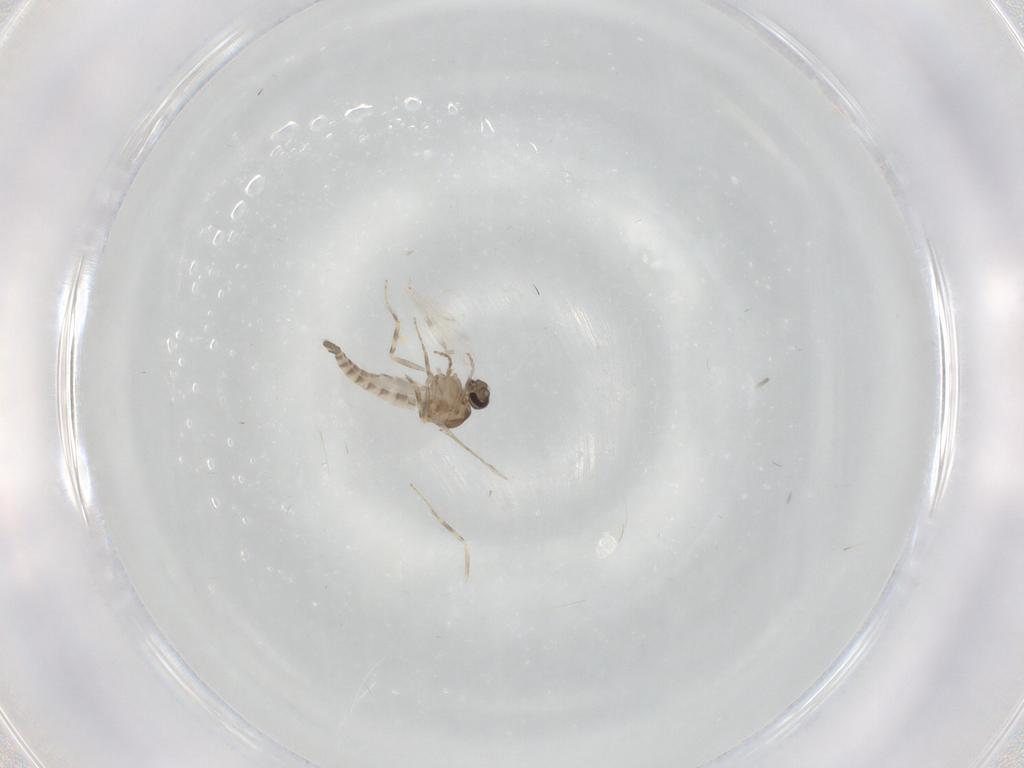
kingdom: Animalia
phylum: Arthropoda
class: Insecta
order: Diptera
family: Ceratopogonidae
